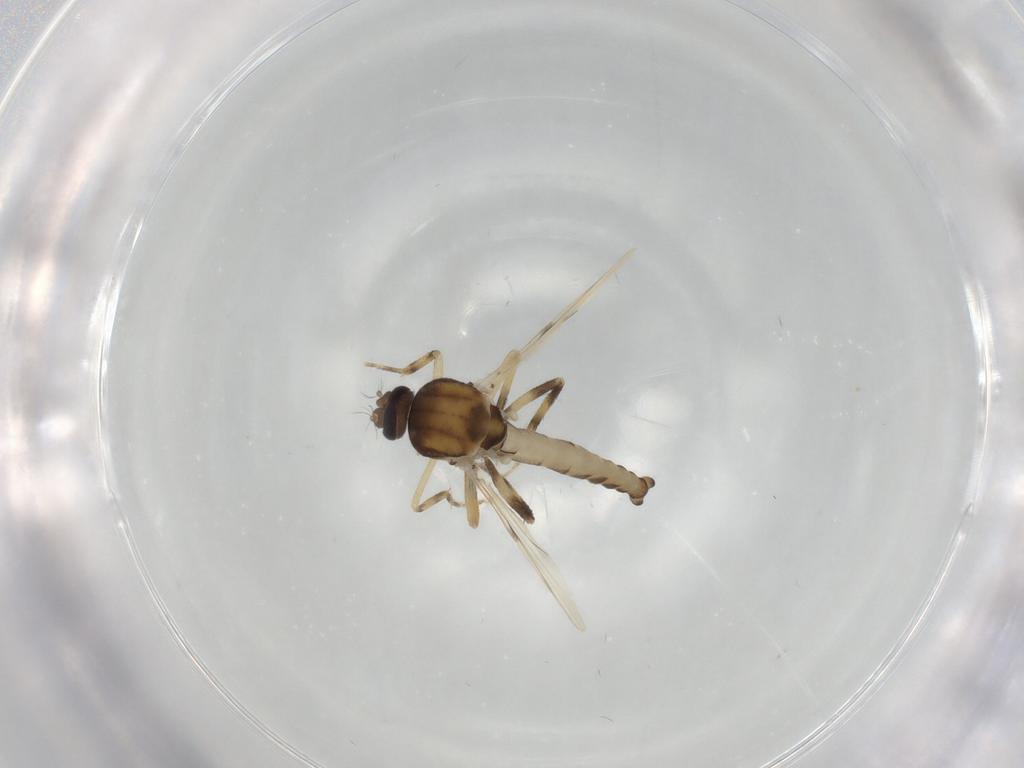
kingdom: Animalia
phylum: Arthropoda
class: Insecta
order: Diptera
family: Ceratopogonidae
